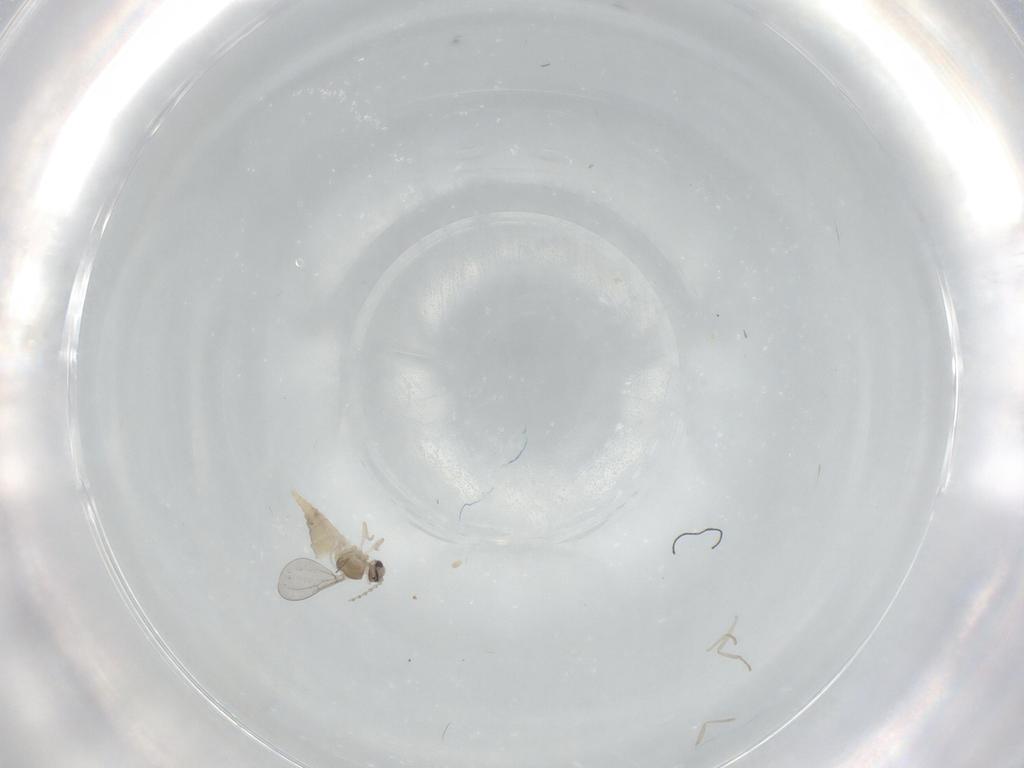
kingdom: Animalia
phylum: Arthropoda
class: Insecta
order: Diptera
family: Cecidomyiidae
